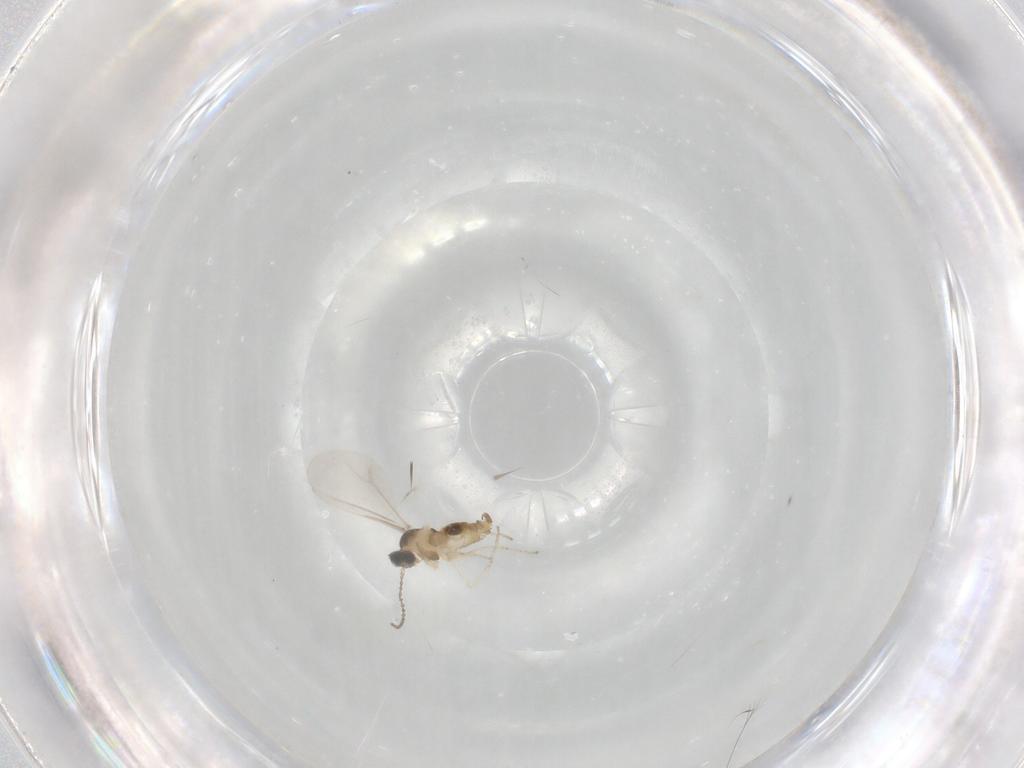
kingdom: Animalia
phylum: Arthropoda
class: Insecta
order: Diptera
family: Cecidomyiidae
